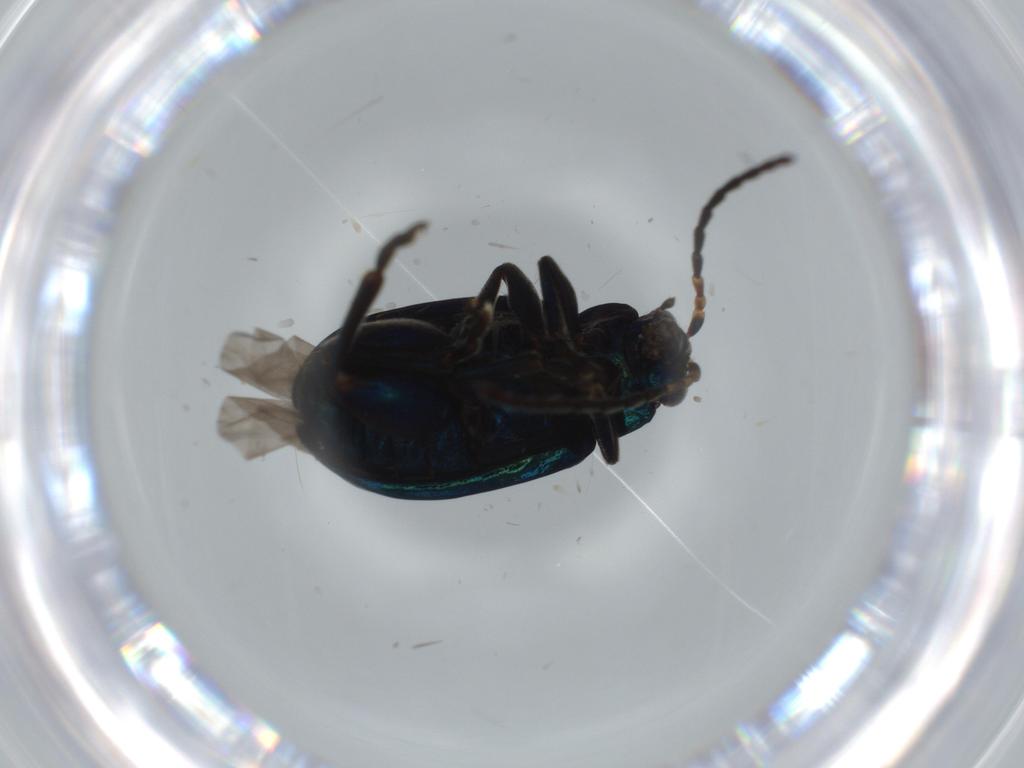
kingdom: Animalia
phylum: Arthropoda
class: Insecta
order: Coleoptera
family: Chrysomelidae
